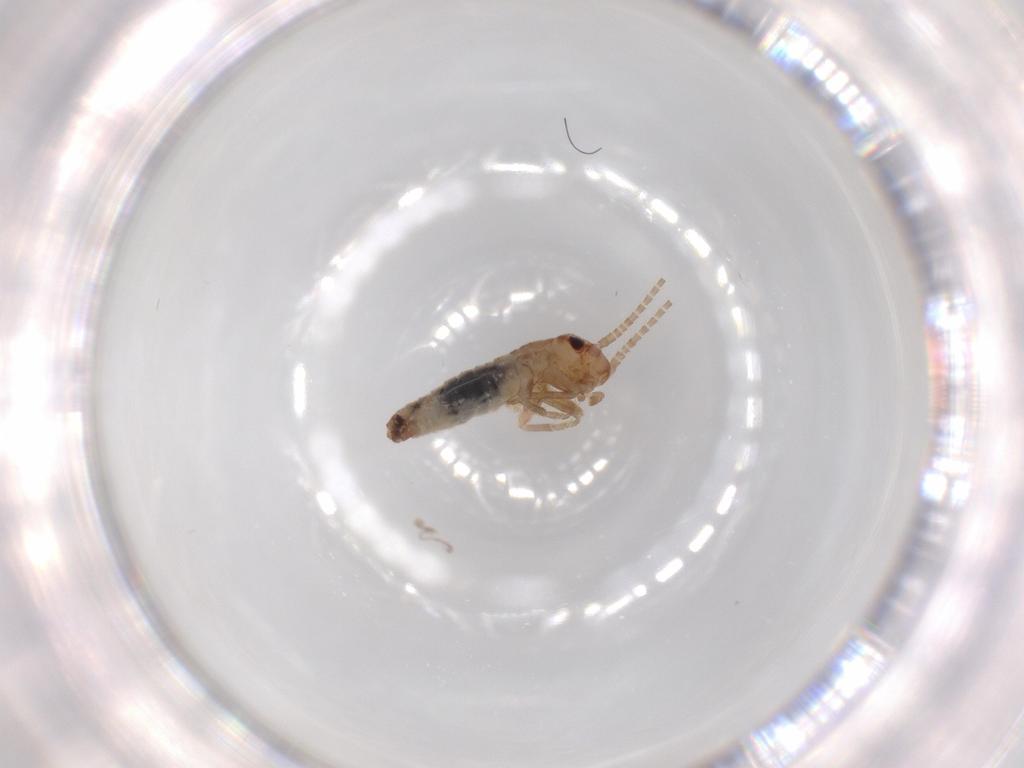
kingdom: Animalia
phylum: Arthropoda
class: Insecta
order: Orthoptera
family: Mogoplistidae
